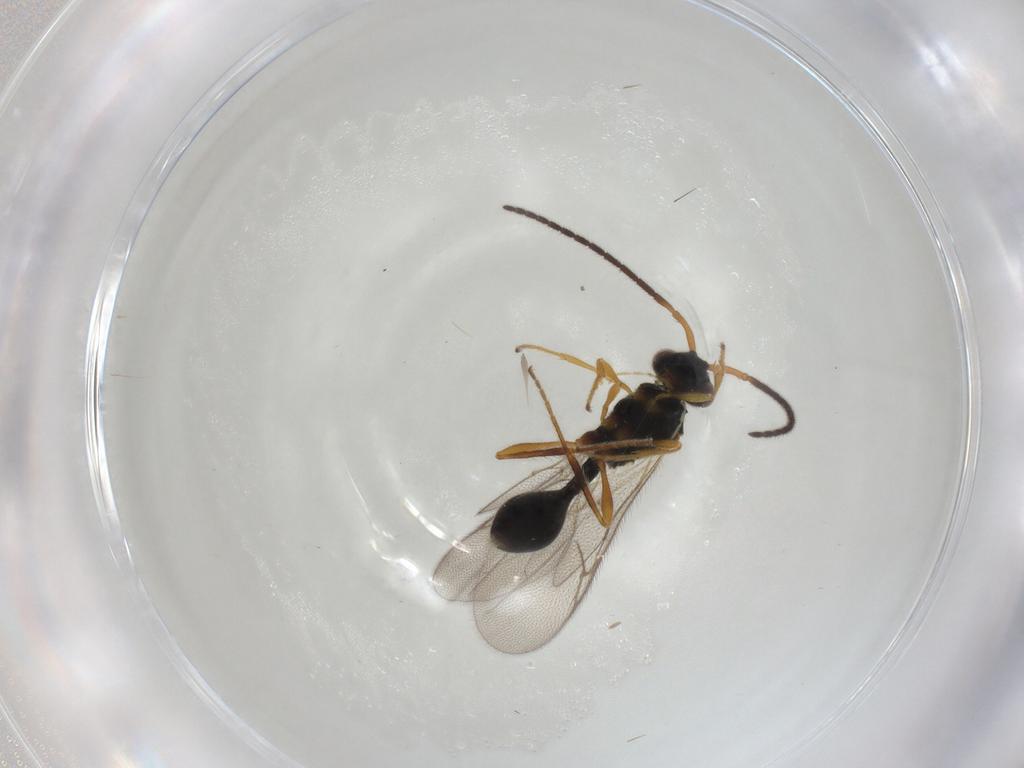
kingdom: Animalia
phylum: Arthropoda
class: Insecta
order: Hymenoptera
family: Diapriidae
